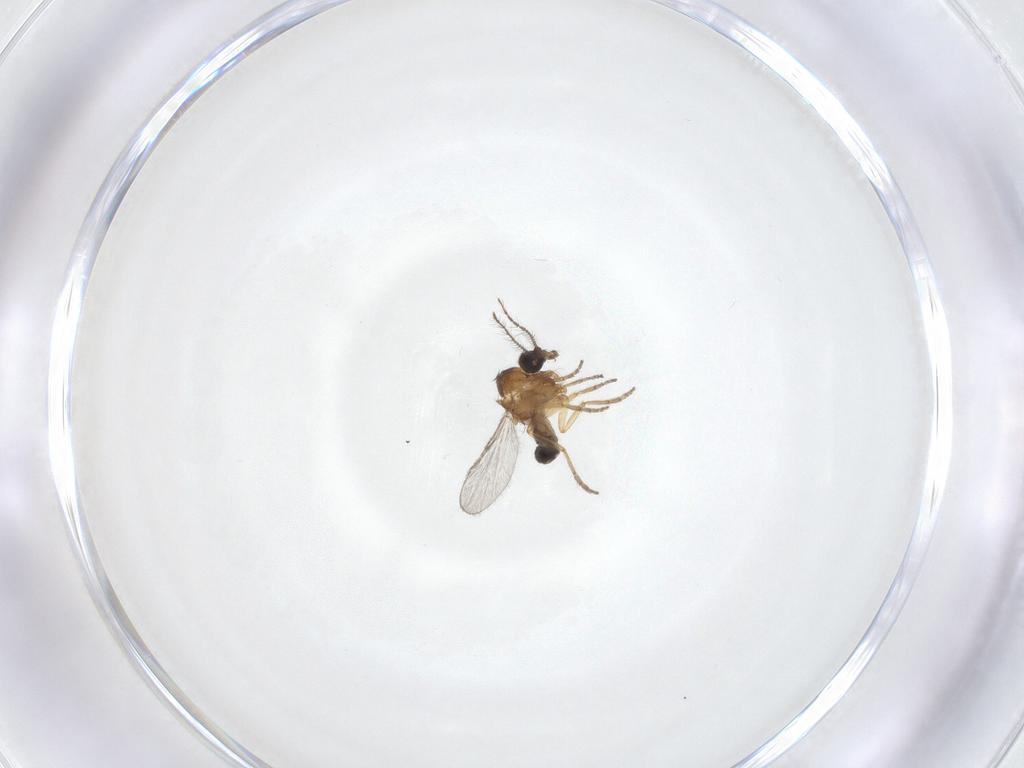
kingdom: Animalia
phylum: Arthropoda
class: Insecta
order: Diptera
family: Ceratopogonidae
